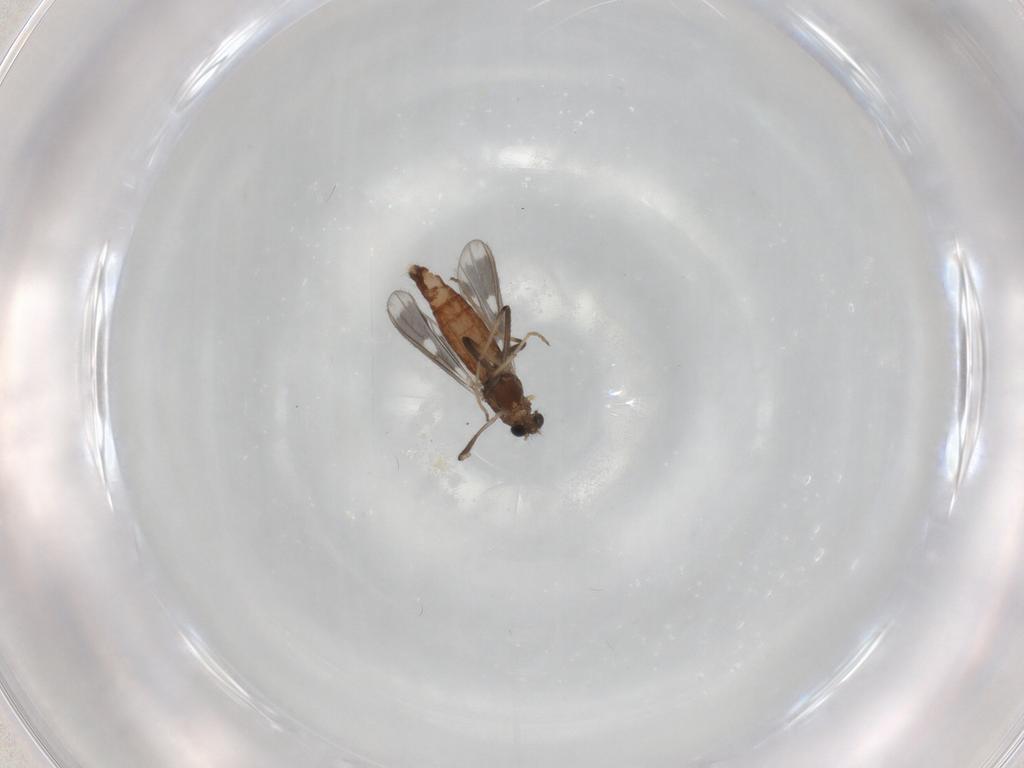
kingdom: Animalia
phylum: Arthropoda
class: Insecta
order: Diptera
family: Chironomidae
